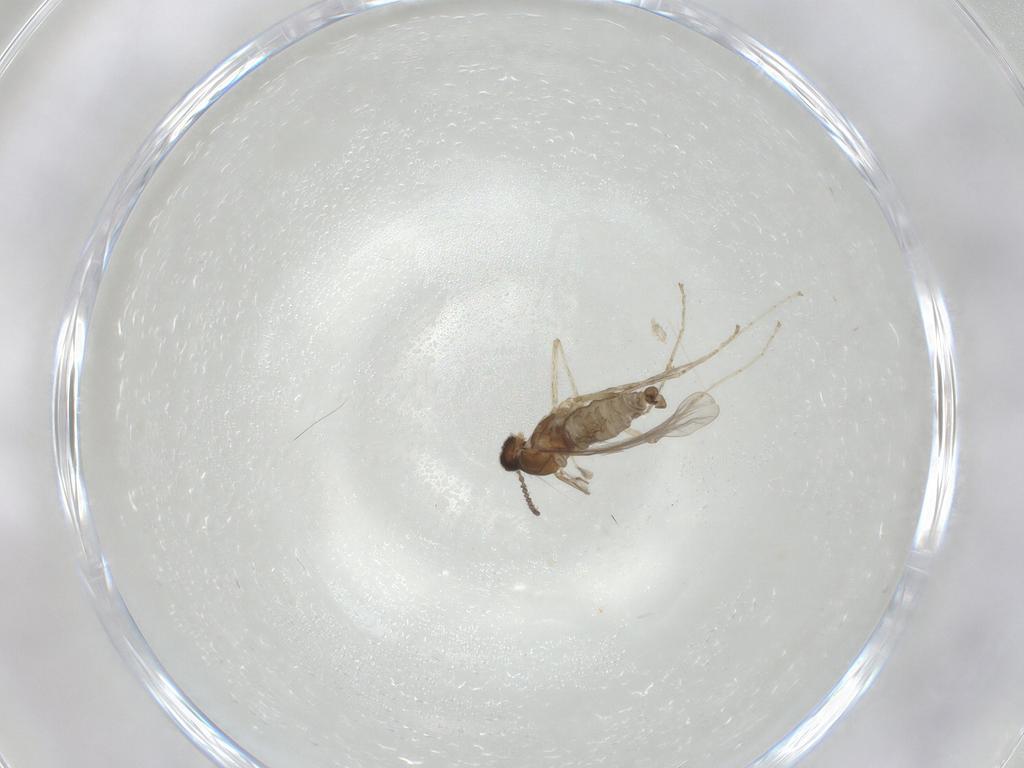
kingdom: Animalia
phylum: Arthropoda
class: Insecta
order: Diptera
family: Cecidomyiidae
